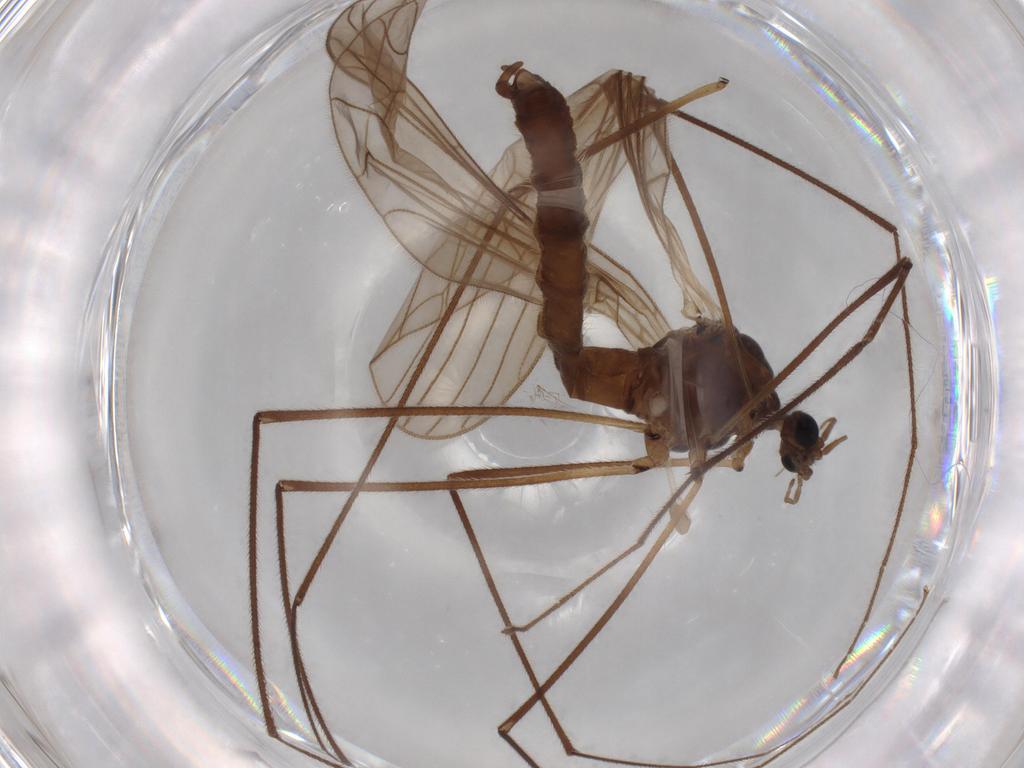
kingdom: Animalia
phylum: Arthropoda
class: Insecta
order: Diptera
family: Trichoceridae
